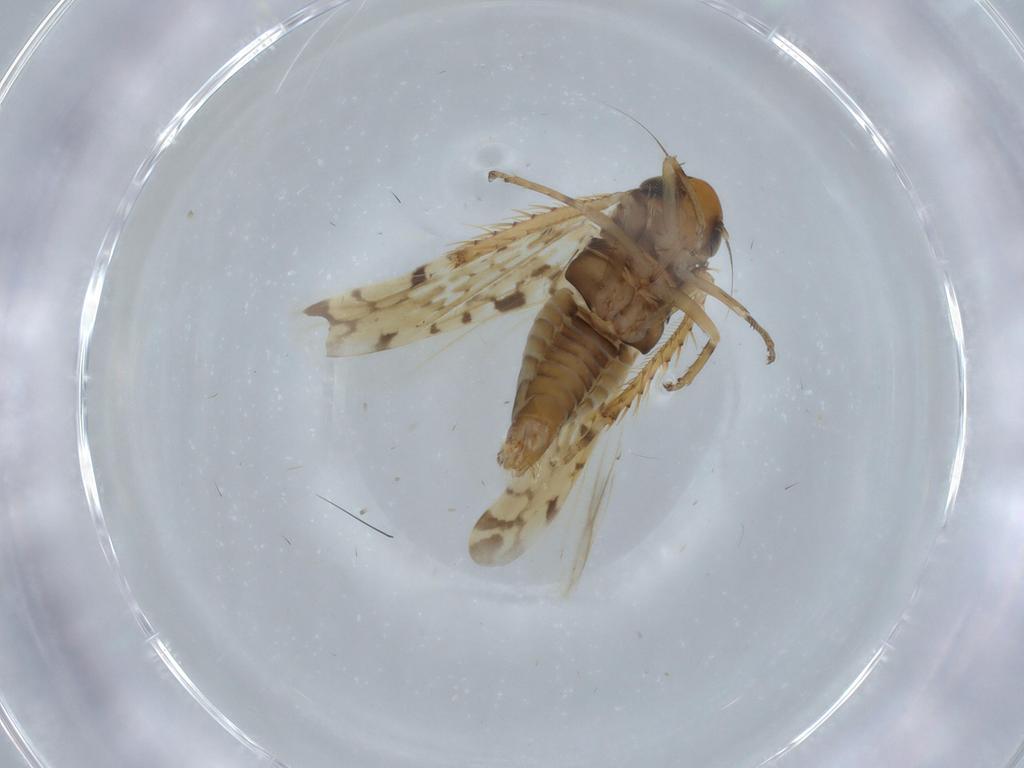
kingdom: Animalia
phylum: Arthropoda
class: Insecta
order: Hemiptera
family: Cicadellidae
